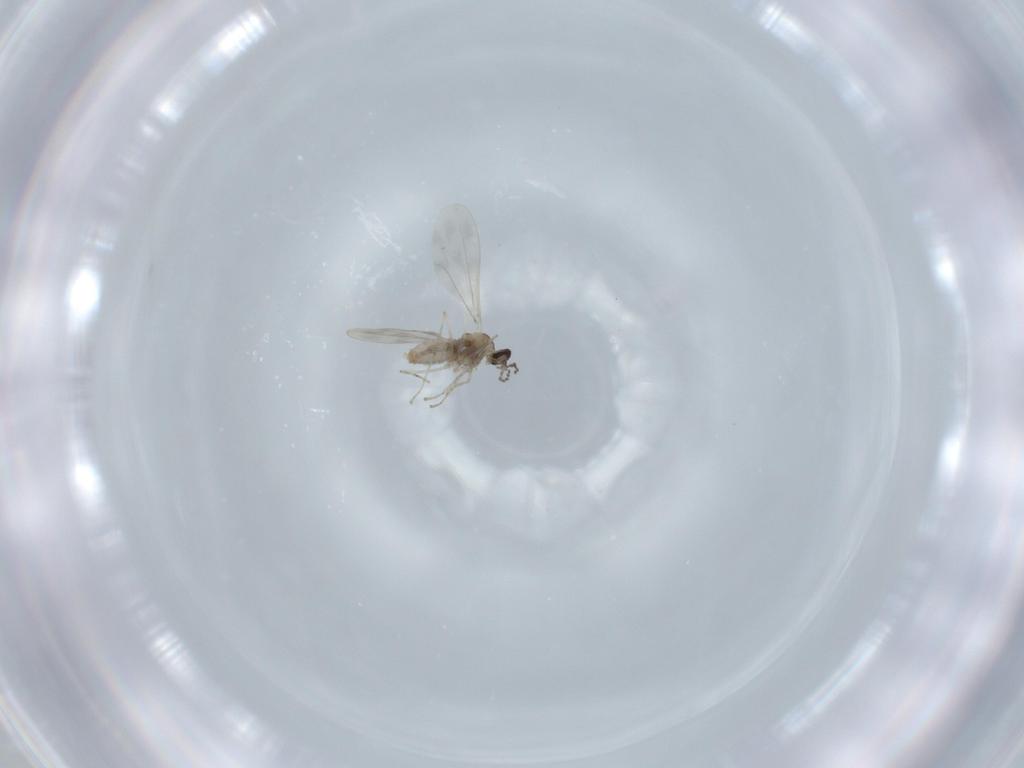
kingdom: Animalia
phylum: Arthropoda
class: Insecta
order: Diptera
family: Cecidomyiidae
